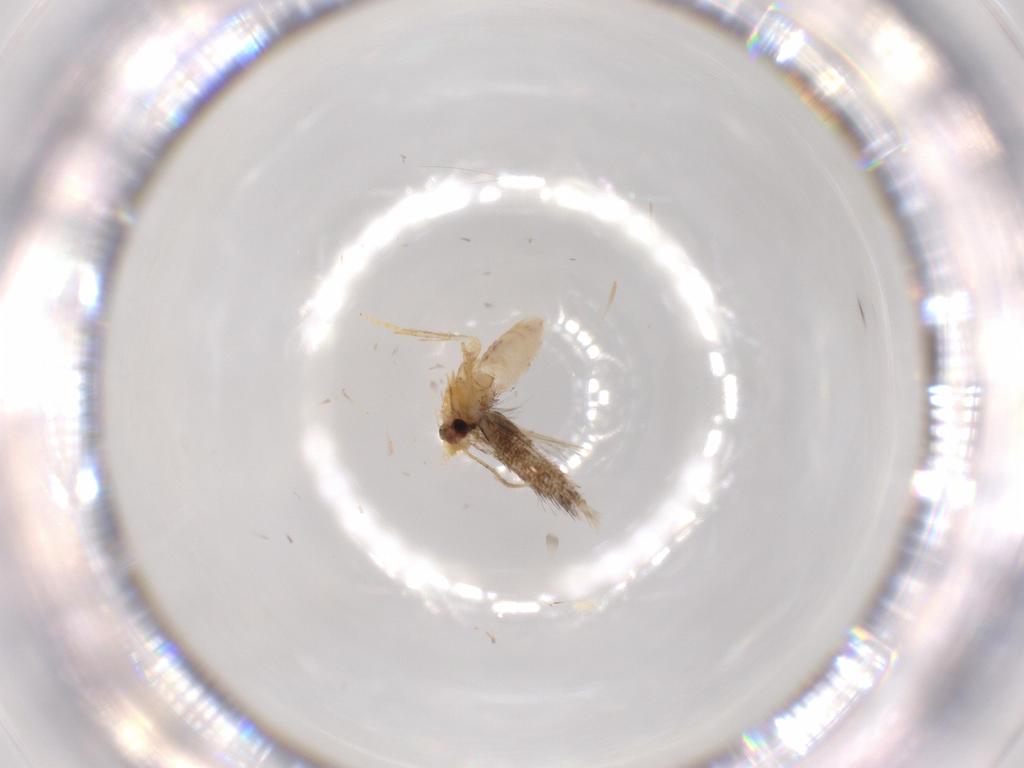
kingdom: Animalia
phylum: Arthropoda
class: Insecta
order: Lepidoptera
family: Nepticulidae
